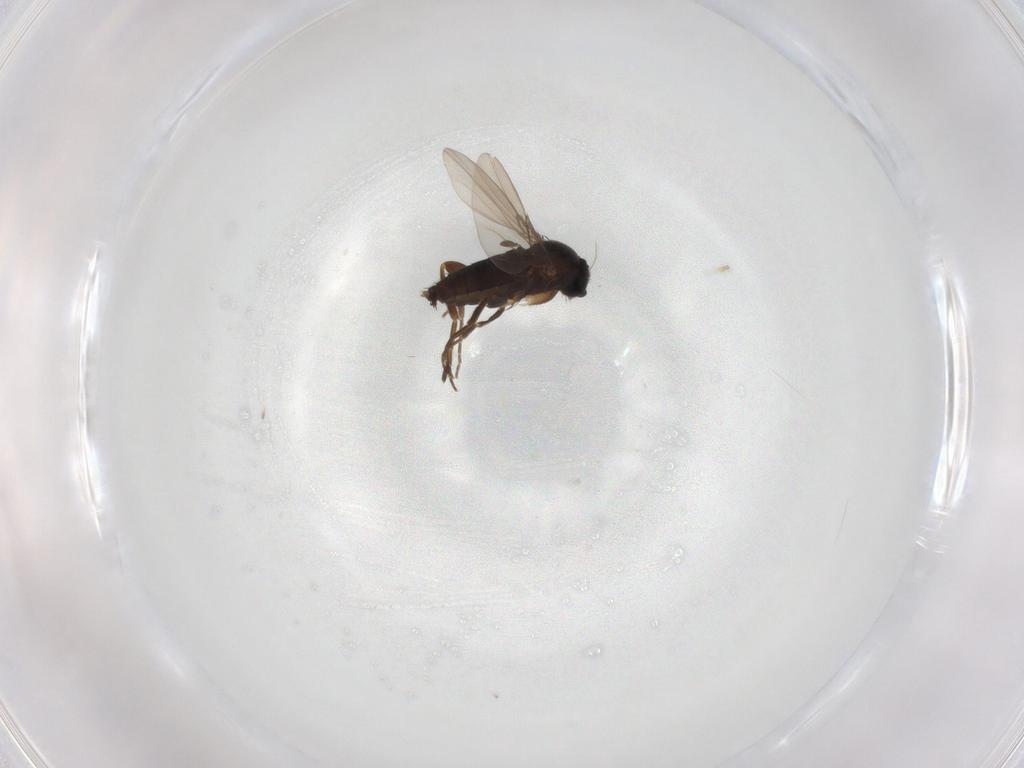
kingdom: Animalia
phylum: Arthropoda
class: Insecta
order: Diptera
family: Phoridae
